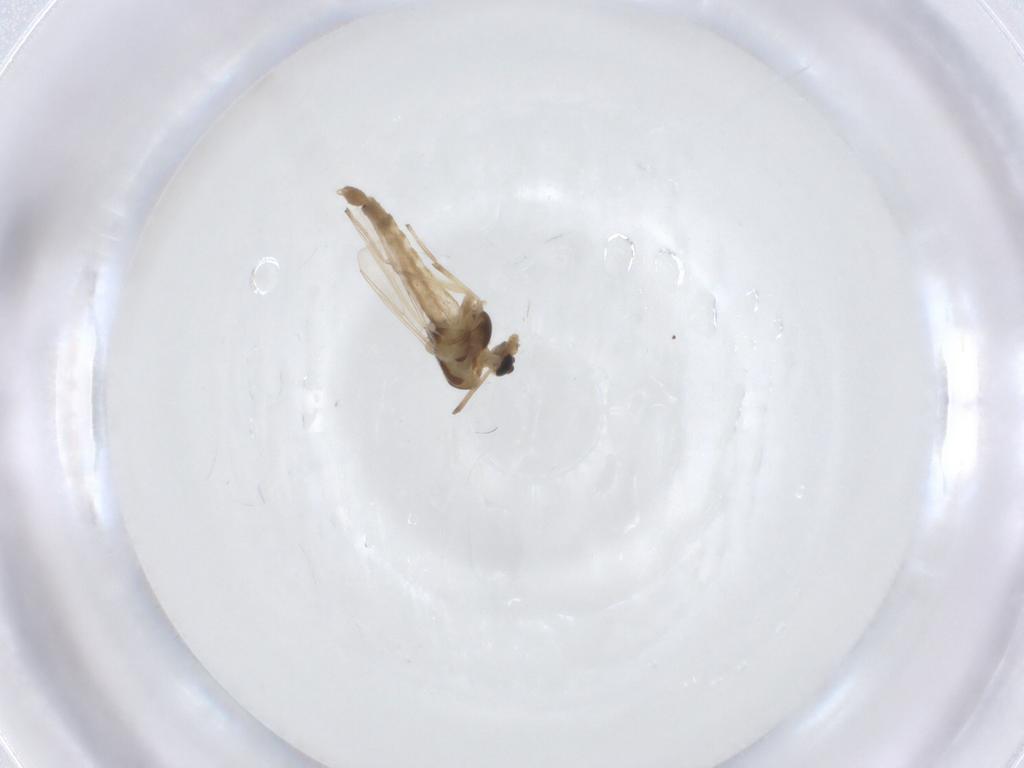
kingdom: Animalia
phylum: Arthropoda
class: Insecta
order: Diptera
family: Chironomidae
